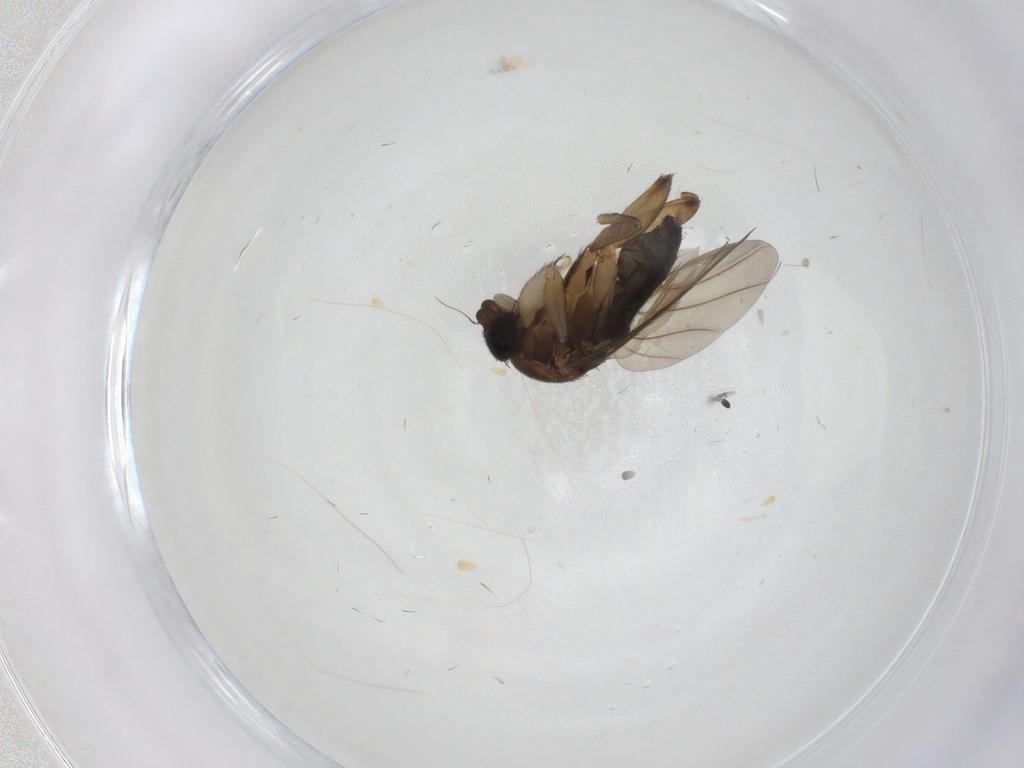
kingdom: Animalia
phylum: Arthropoda
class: Insecta
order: Diptera
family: Phoridae
